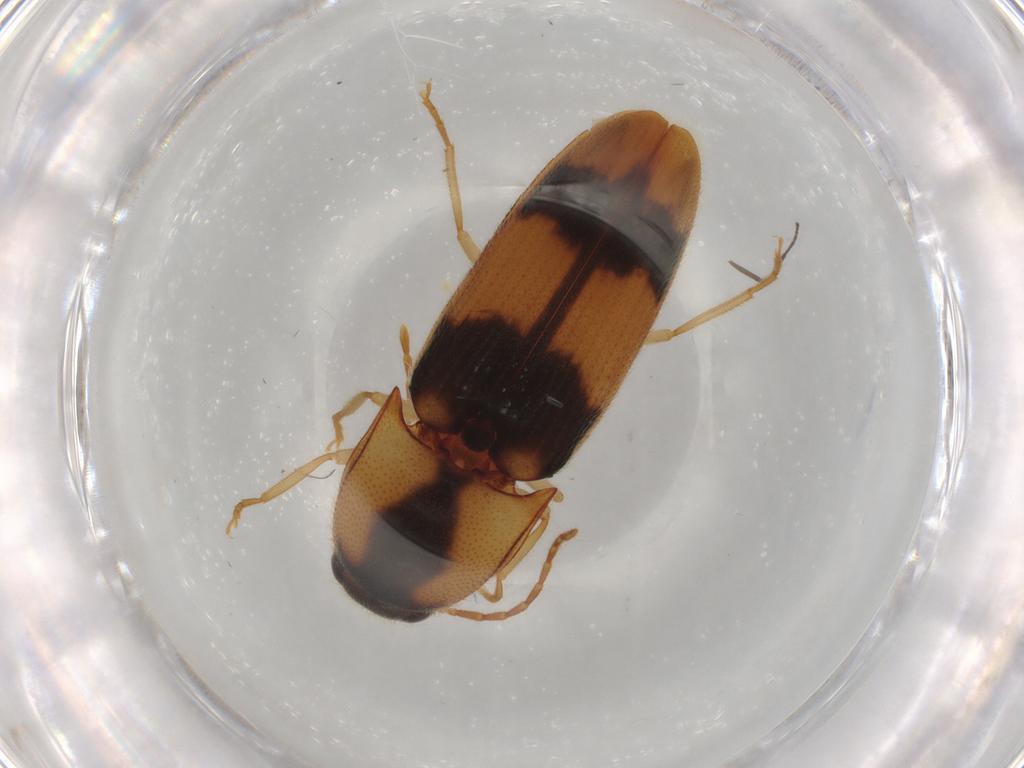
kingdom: Animalia
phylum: Arthropoda
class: Insecta
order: Coleoptera
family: Elateridae
